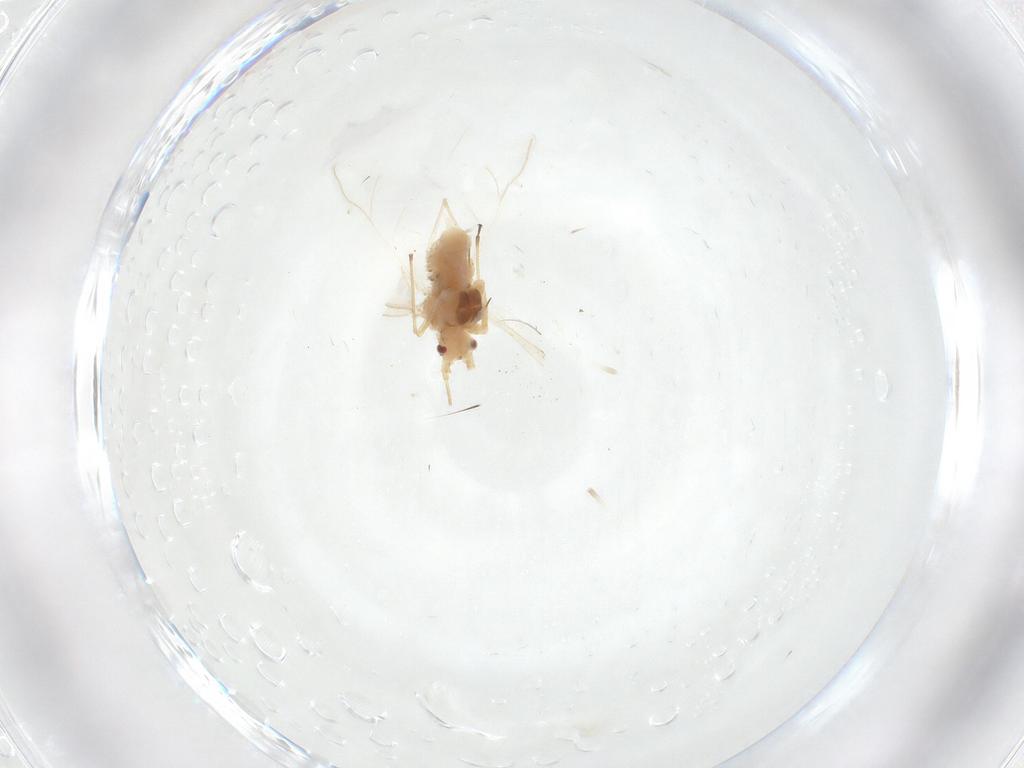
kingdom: Animalia
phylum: Arthropoda
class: Insecta
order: Hemiptera
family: Aphididae
